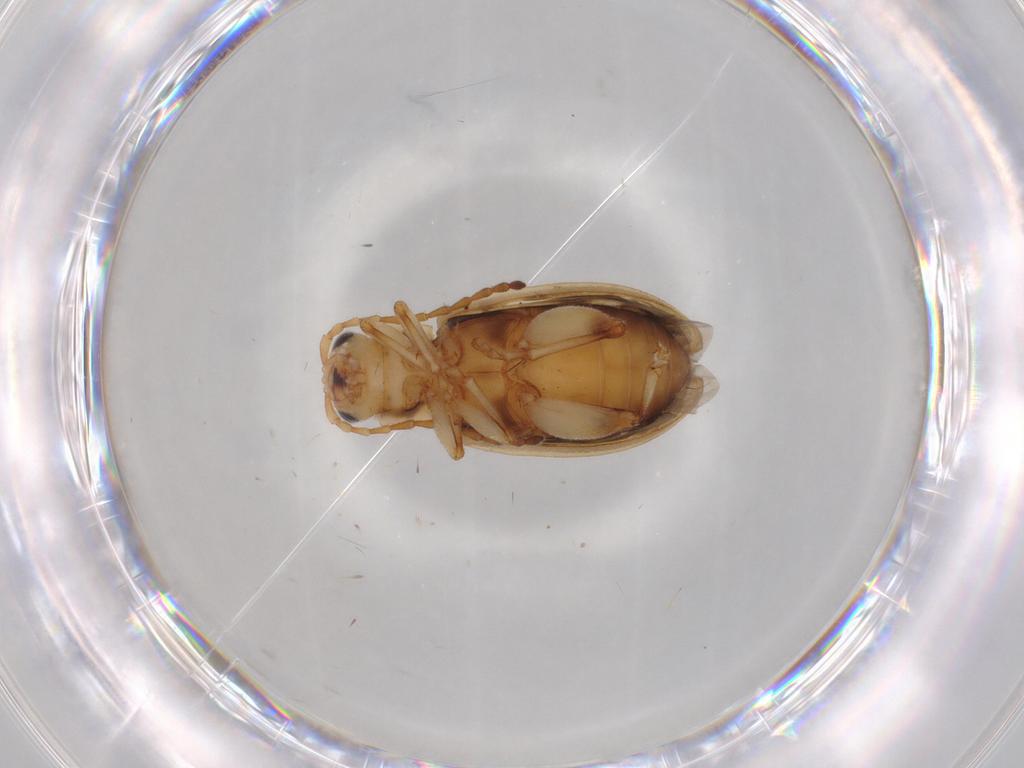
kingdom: Animalia
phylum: Arthropoda
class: Insecta
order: Coleoptera
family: Chrysomelidae
